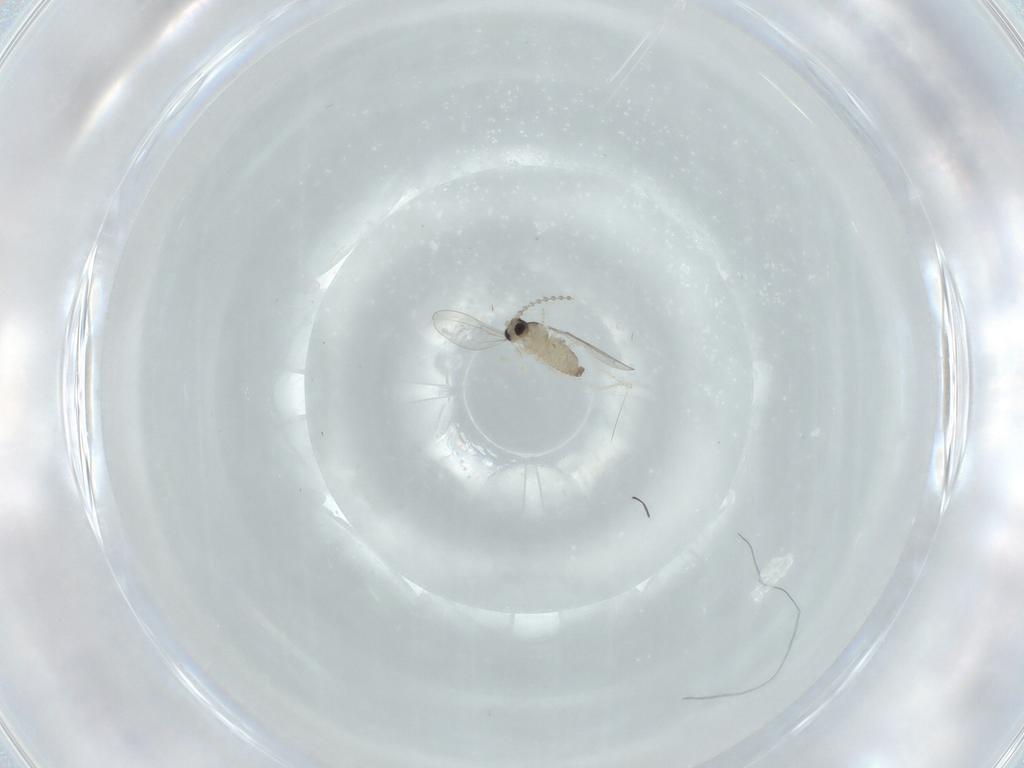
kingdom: Animalia
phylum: Arthropoda
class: Insecta
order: Diptera
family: Cecidomyiidae
